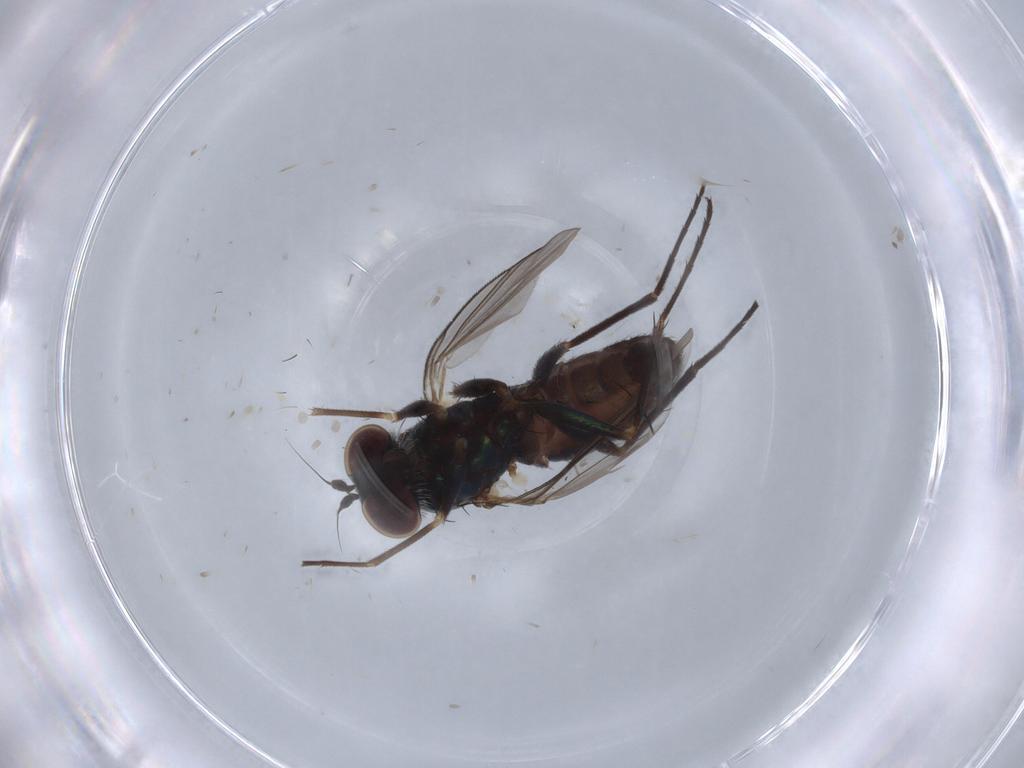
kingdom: Animalia
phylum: Arthropoda
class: Insecta
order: Diptera
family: Dolichopodidae
